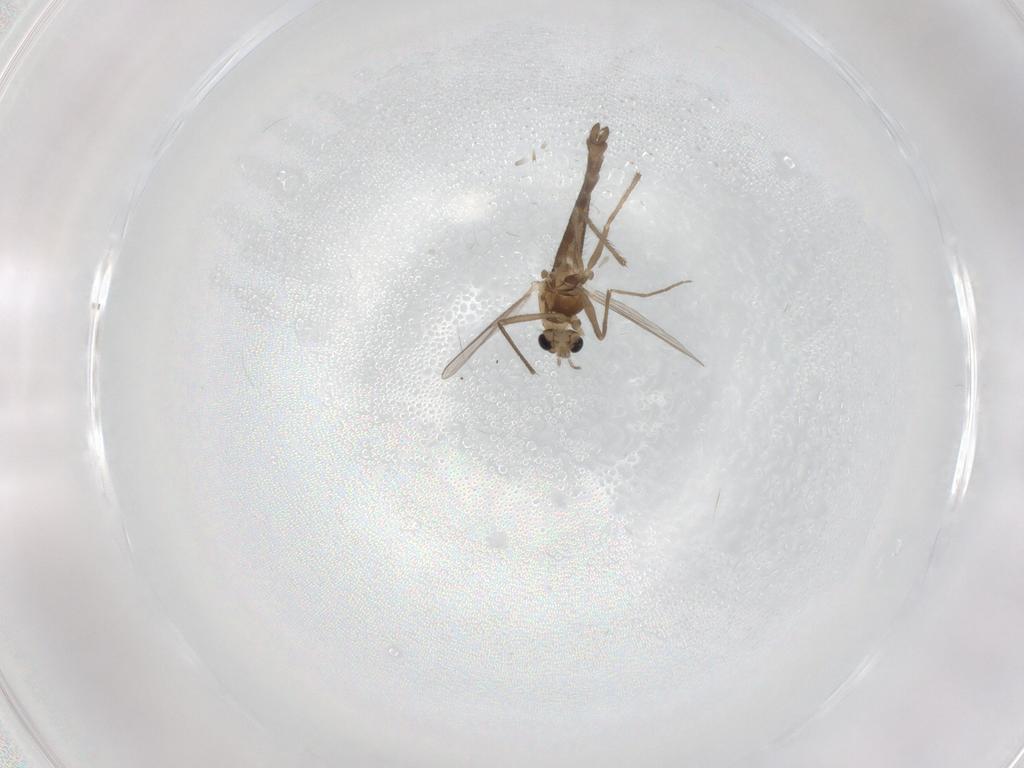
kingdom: Animalia
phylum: Arthropoda
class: Insecta
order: Diptera
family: Chironomidae
